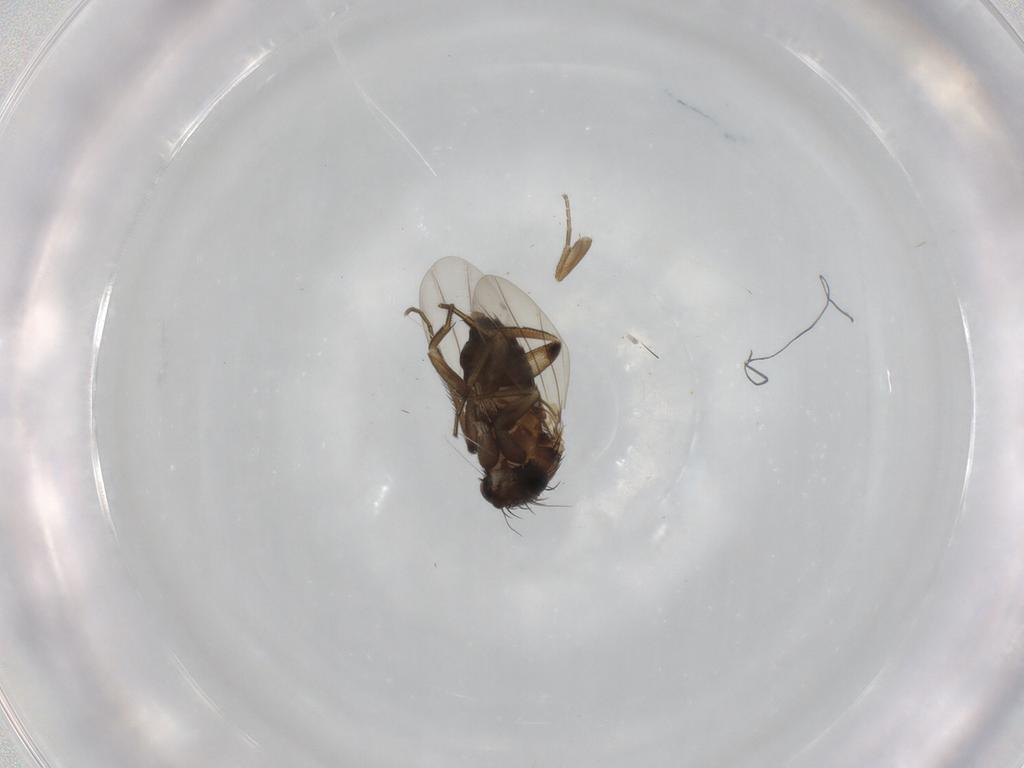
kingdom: Animalia
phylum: Arthropoda
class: Insecta
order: Diptera
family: Phoridae
